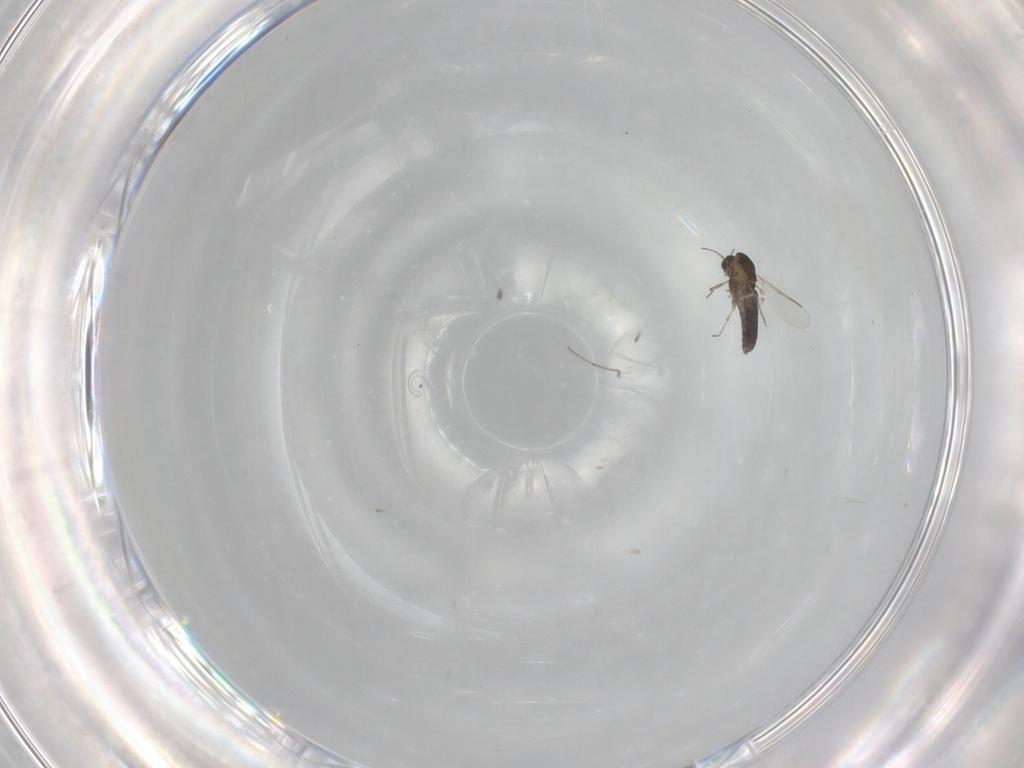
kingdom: Animalia
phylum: Arthropoda
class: Insecta
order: Diptera
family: Chironomidae
